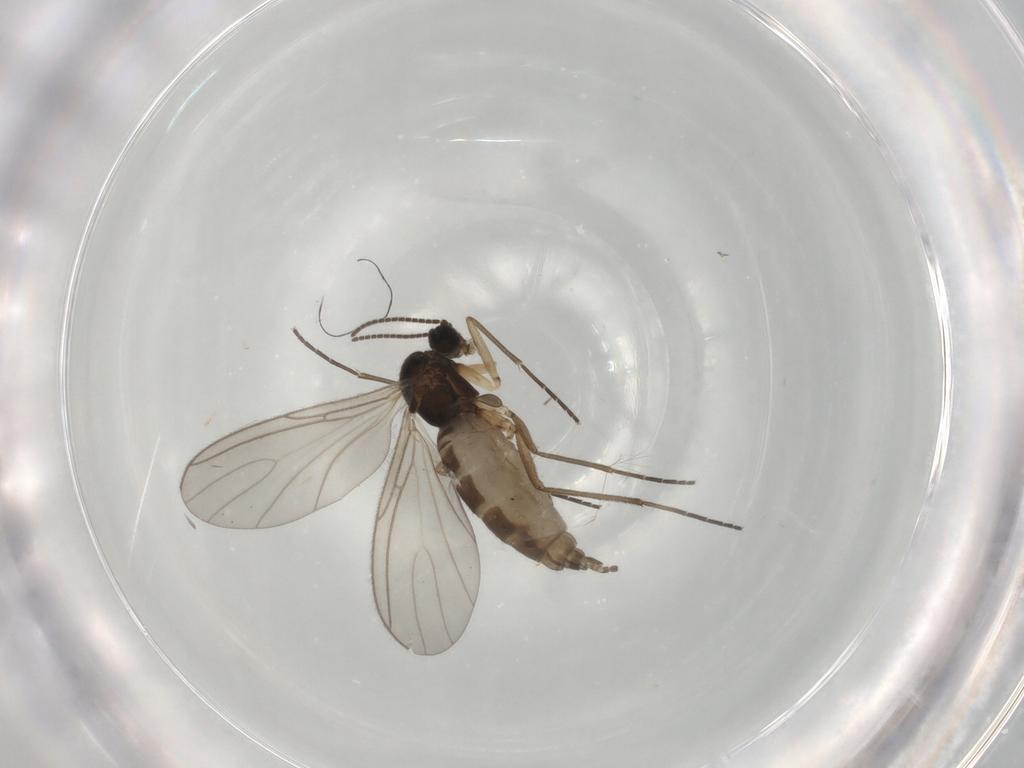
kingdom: Animalia
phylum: Arthropoda
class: Insecta
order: Diptera
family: Sciaridae
